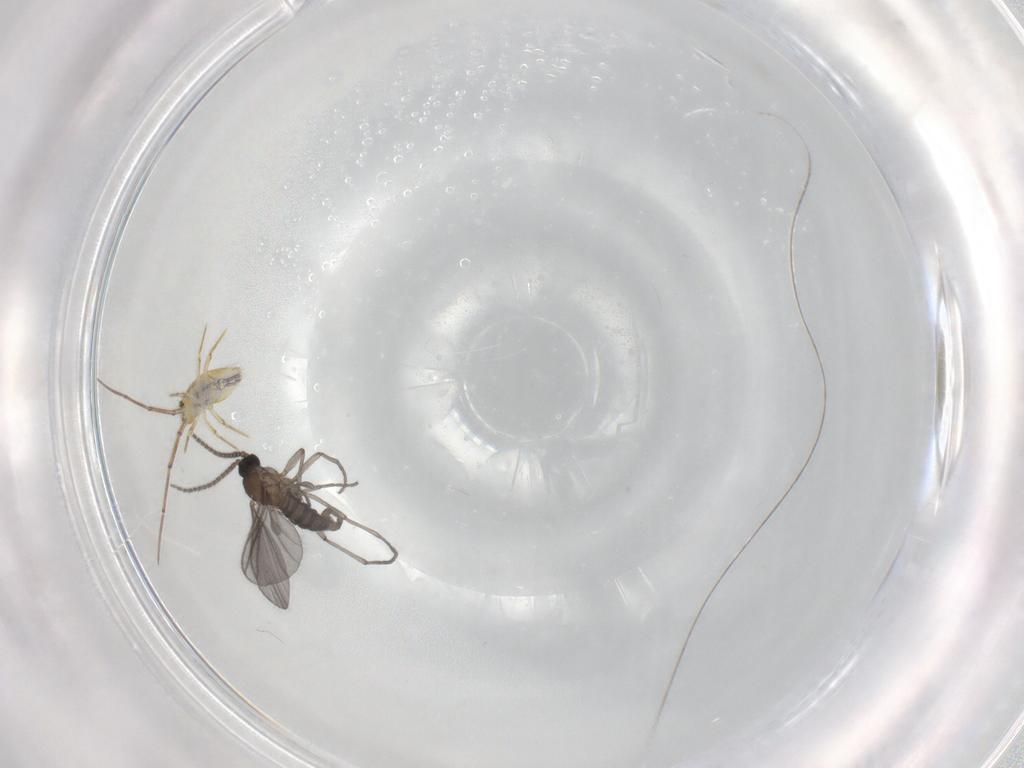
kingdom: Animalia
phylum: Arthropoda
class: Insecta
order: Diptera
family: Sciaridae
